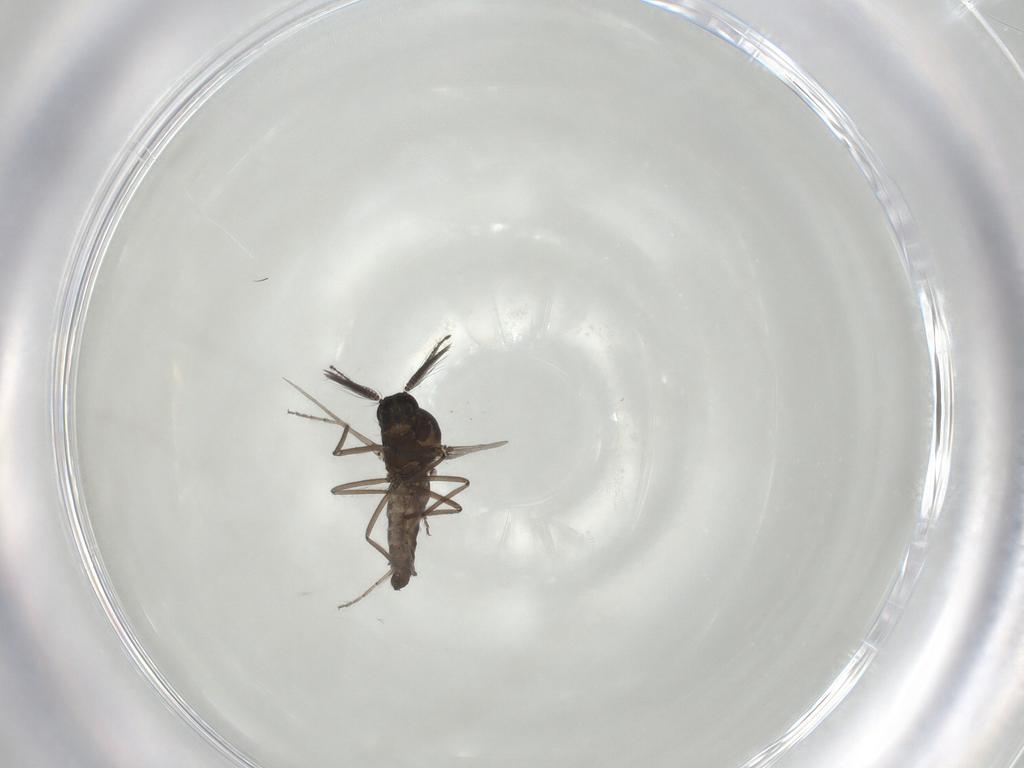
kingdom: Animalia
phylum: Arthropoda
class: Insecta
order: Diptera
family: Ceratopogonidae
